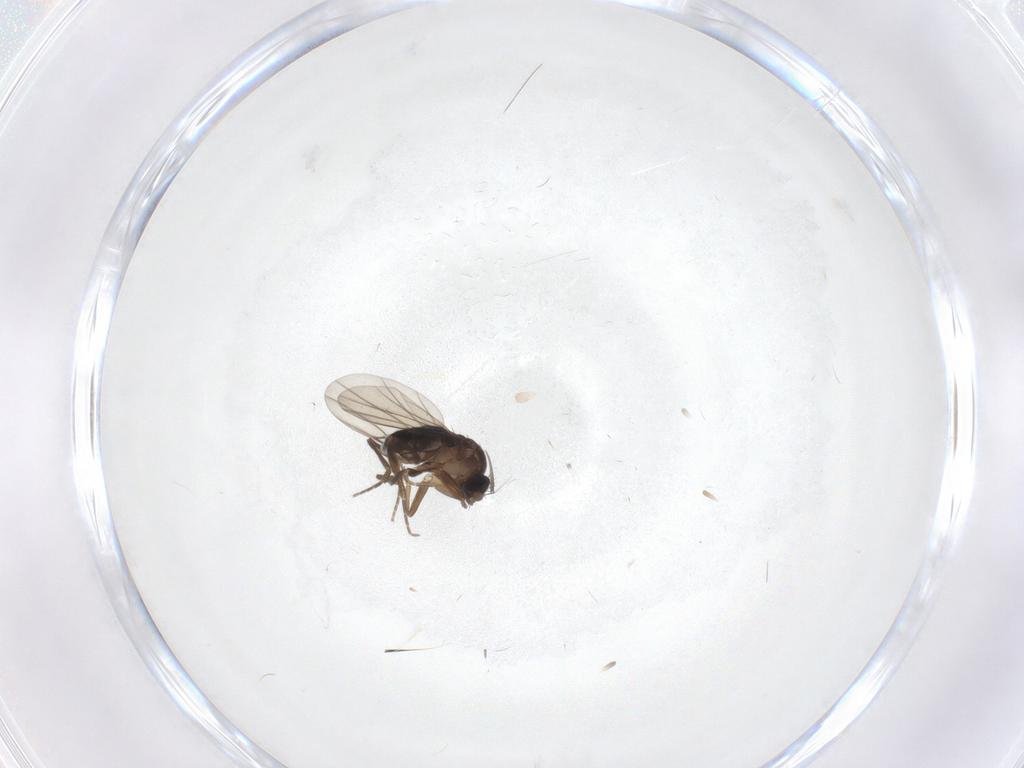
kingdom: Animalia
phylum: Arthropoda
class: Insecta
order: Diptera
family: Phoridae
